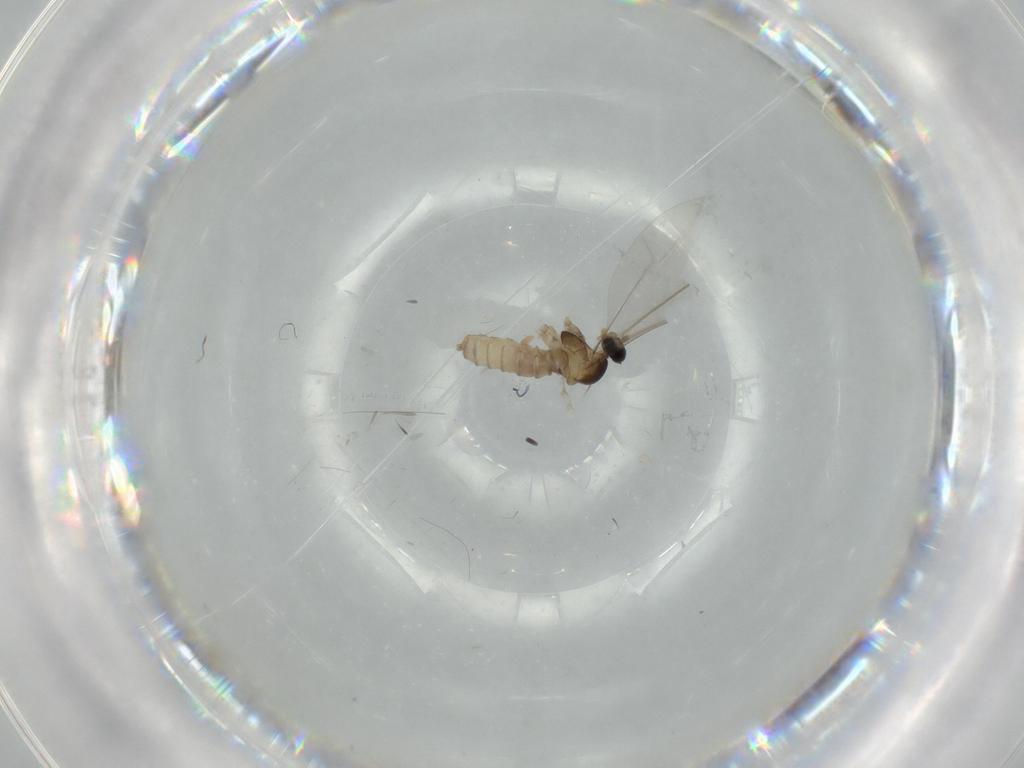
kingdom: Animalia
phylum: Arthropoda
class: Insecta
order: Diptera
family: Cecidomyiidae
